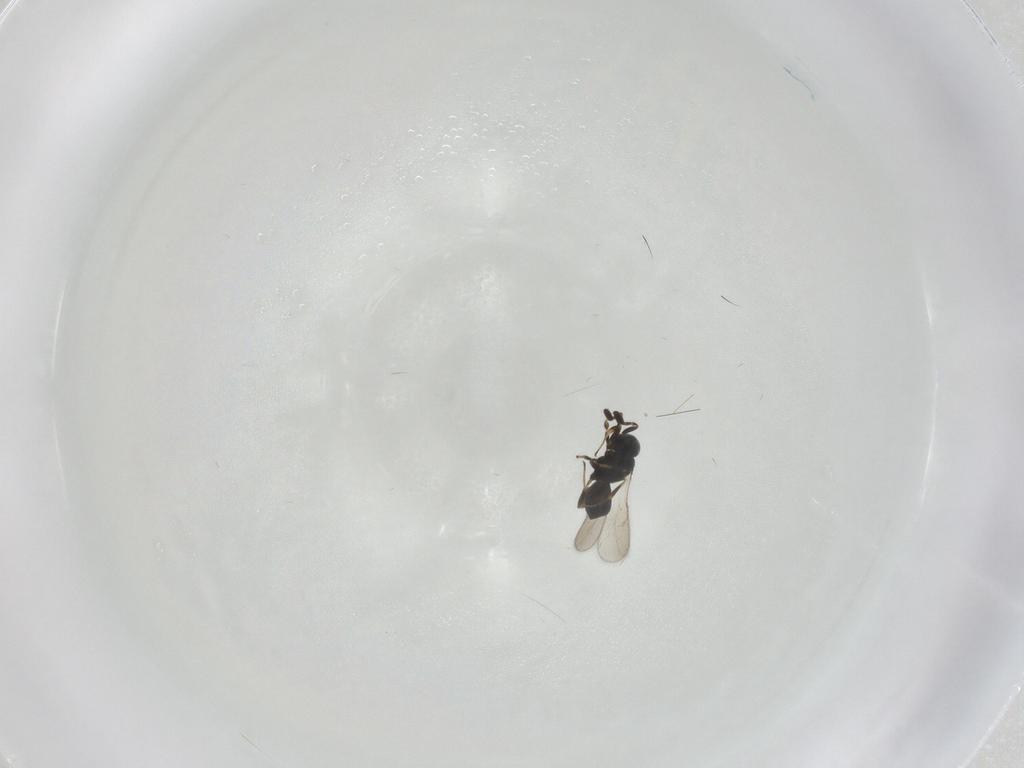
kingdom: Animalia
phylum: Arthropoda
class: Insecta
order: Hymenoptera
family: Scelionidae
